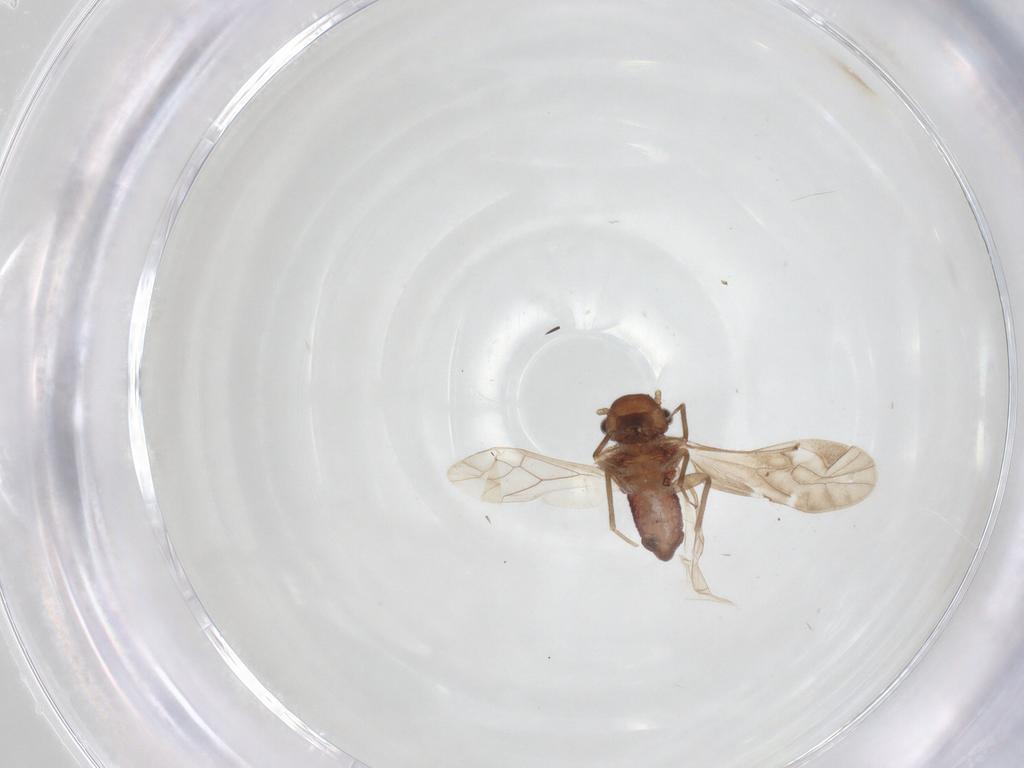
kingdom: Animalia
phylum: Arthropoda
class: Insecta
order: Psocodea
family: Caeciliusidae
